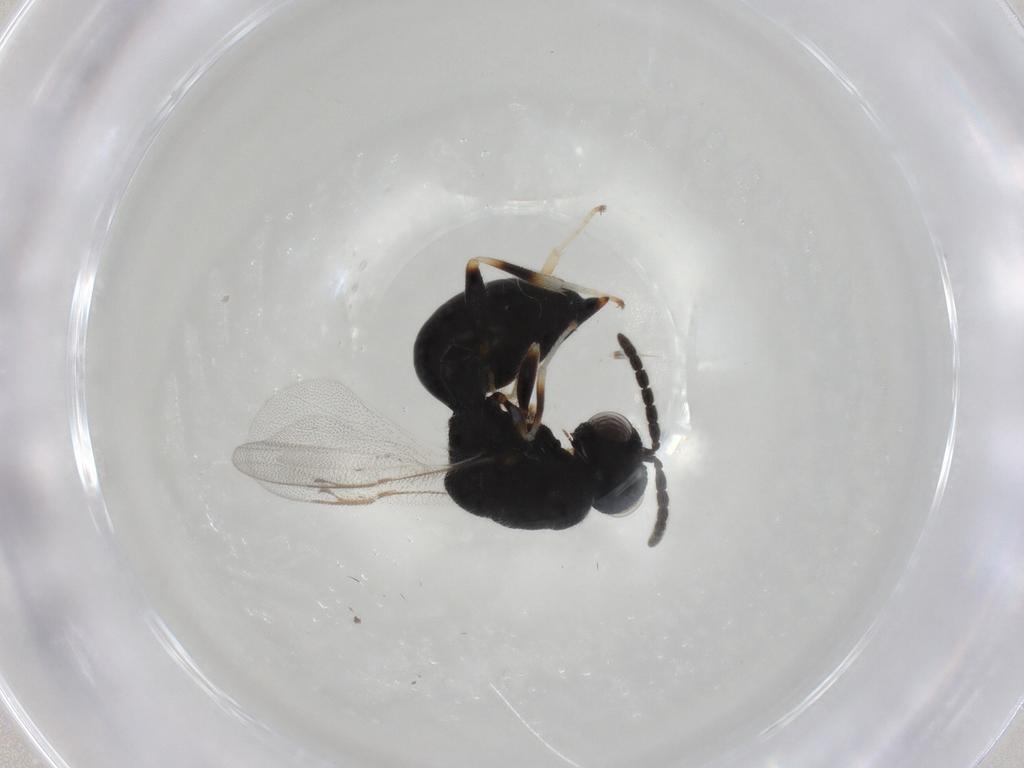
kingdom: Animalia
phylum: Arthropoda
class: Insecta
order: Hymenoptera
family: Eurytomidae
